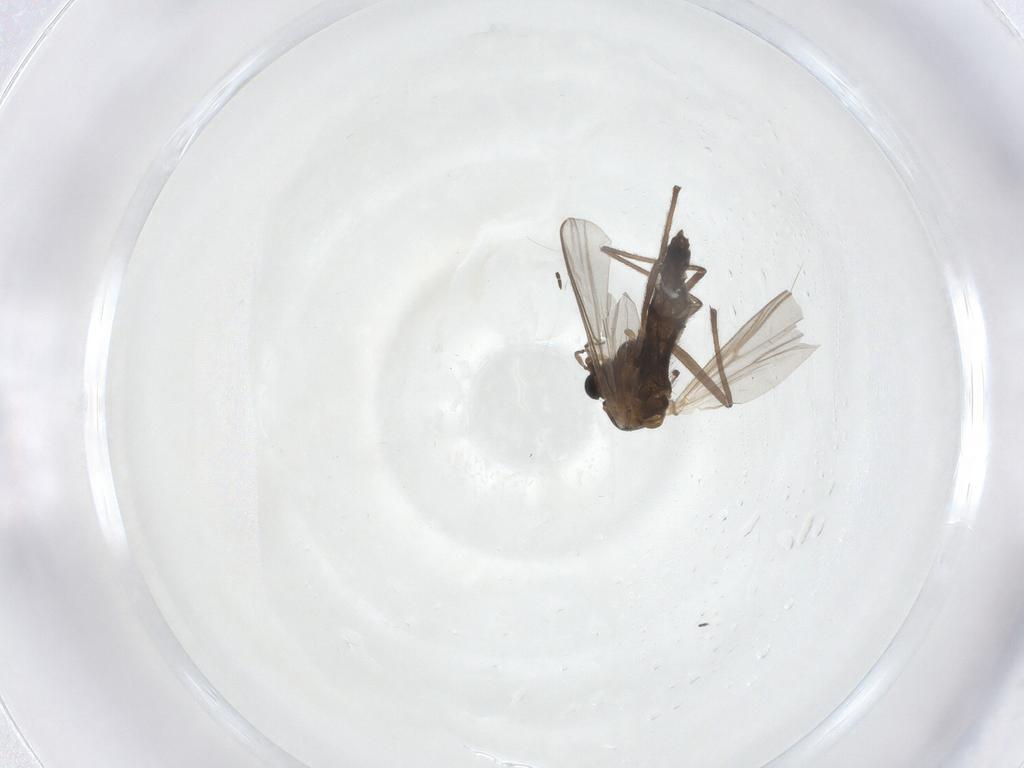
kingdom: Animalia
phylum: Arthropoda
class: Insecta
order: Diptera
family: Chironomidae
